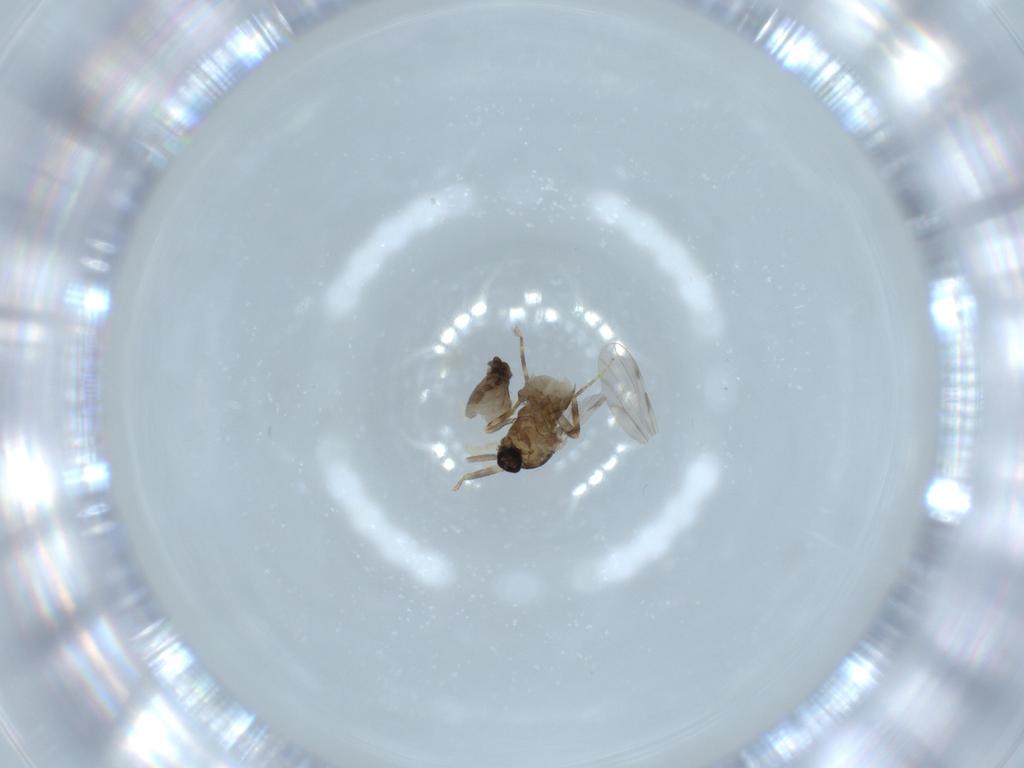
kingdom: Animalia
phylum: Arthropoda
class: Insecta
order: Diptera
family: Ceratopogonidae
